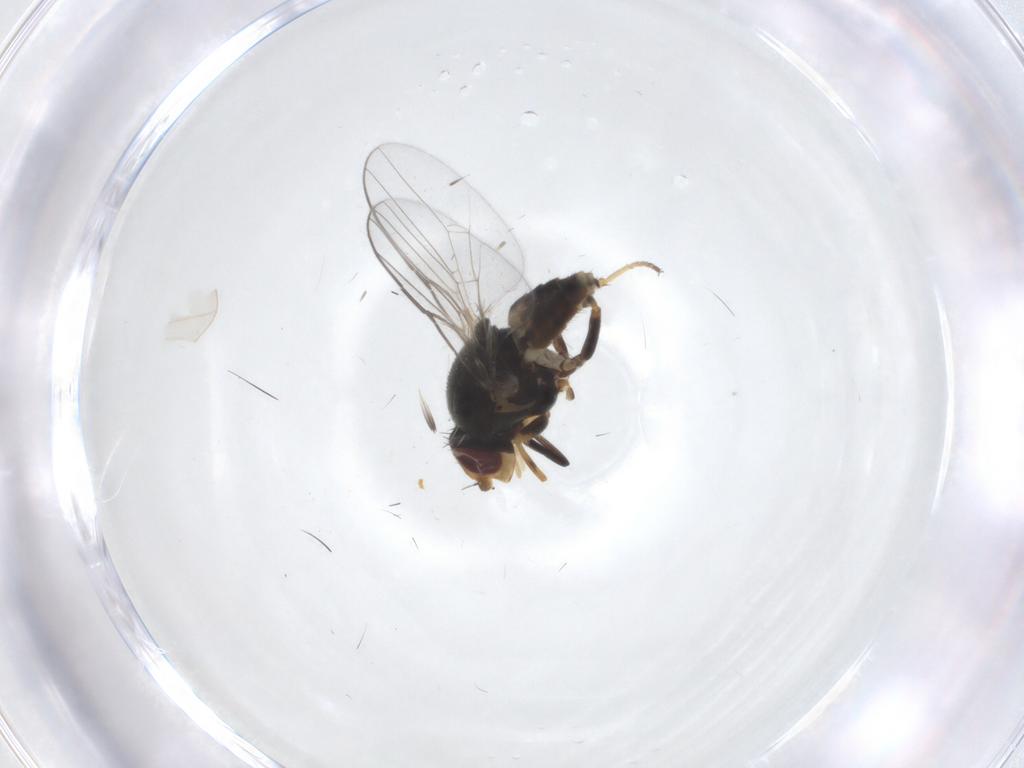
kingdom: Animalia
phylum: Arthropoda
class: Insecta
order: Diptera
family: Chloropidae
